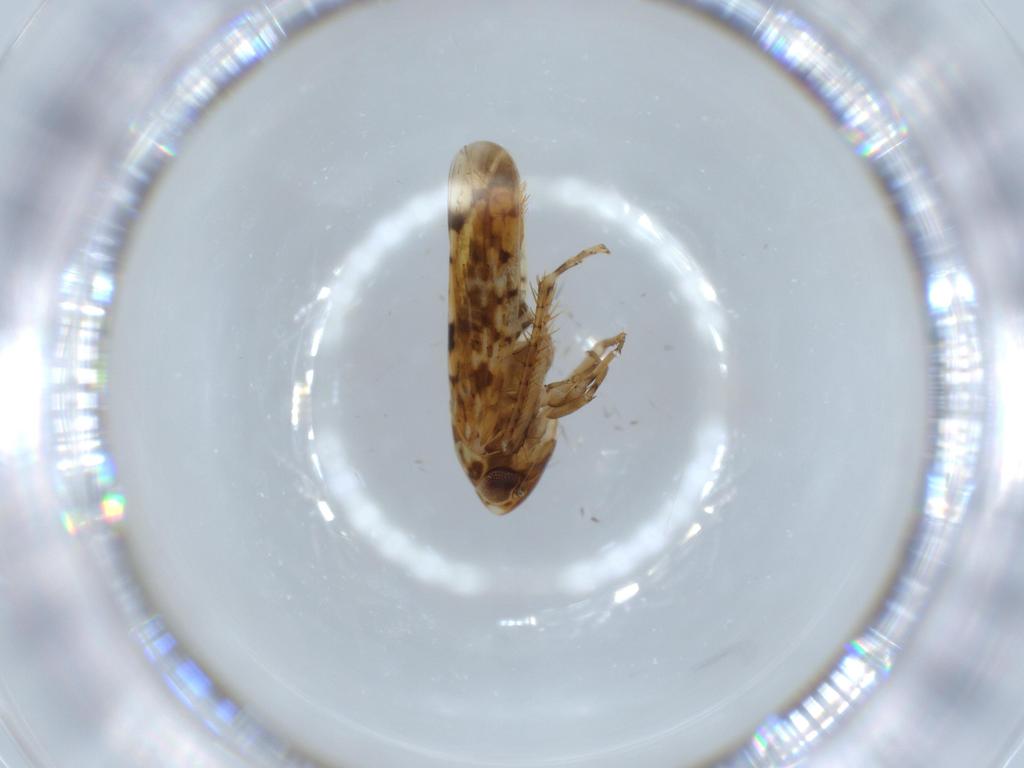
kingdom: Animalia
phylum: Arthropoda
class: Insecta
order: Hemiptera
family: Cicadellidae
